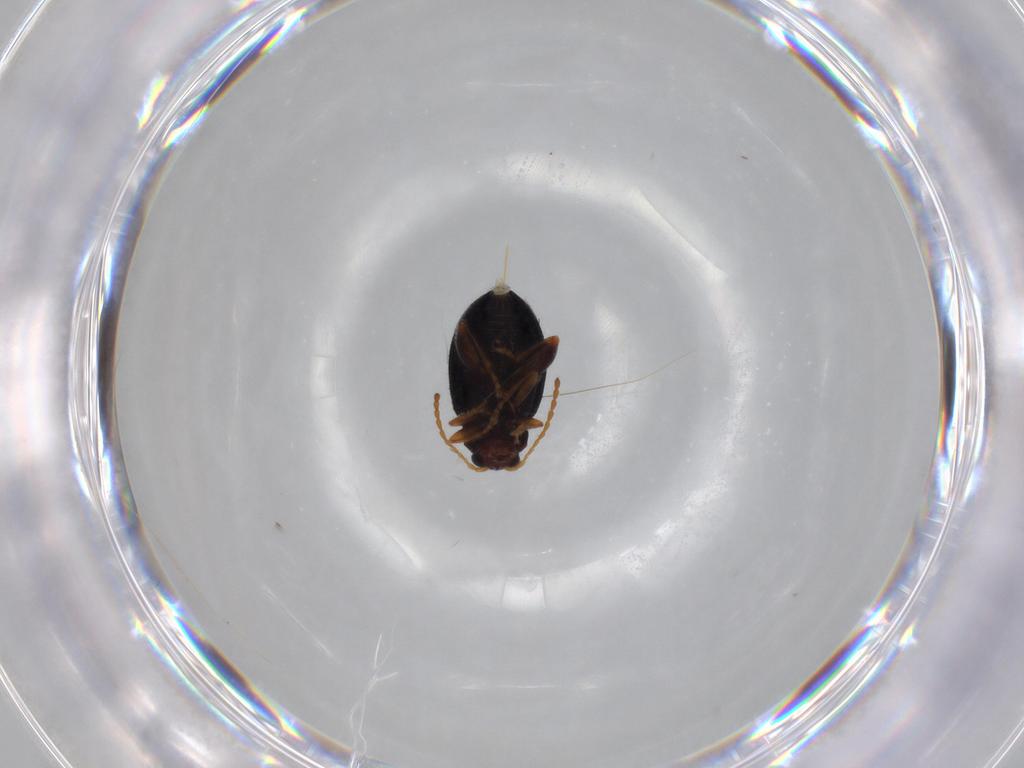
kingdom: Animalia
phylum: Arthropoda
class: Insecta
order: Coleoptera
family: Chrysomelidae
